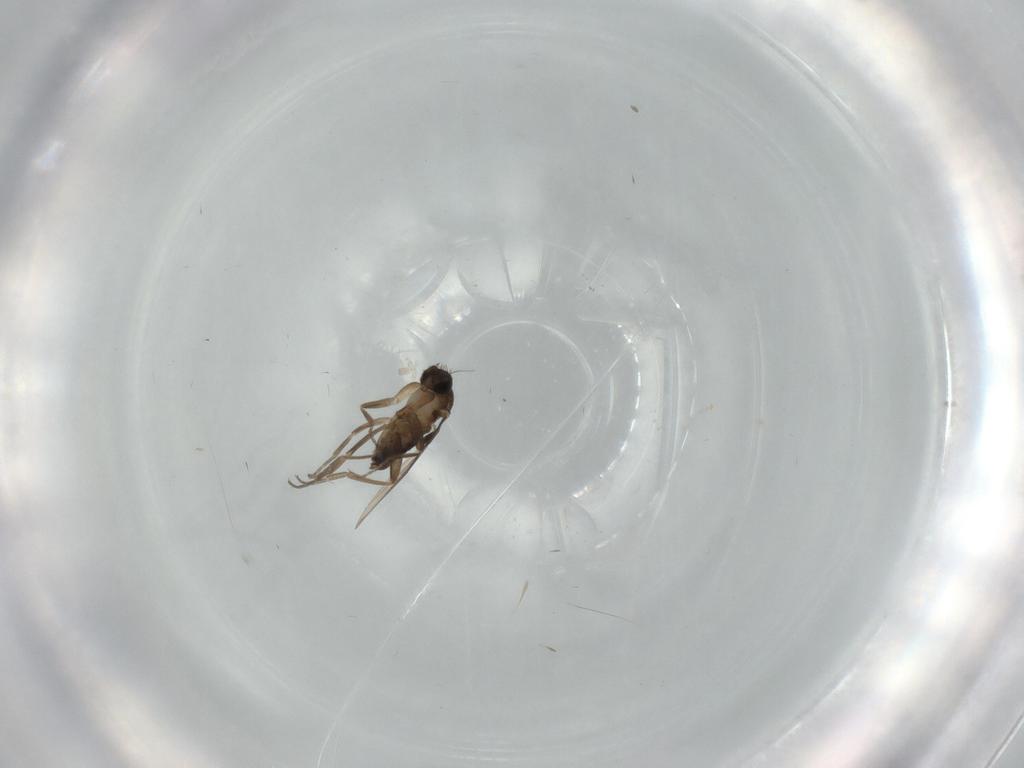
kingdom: Animalia
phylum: Arthropoda
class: Insecta
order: Diptera
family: Phoridae
